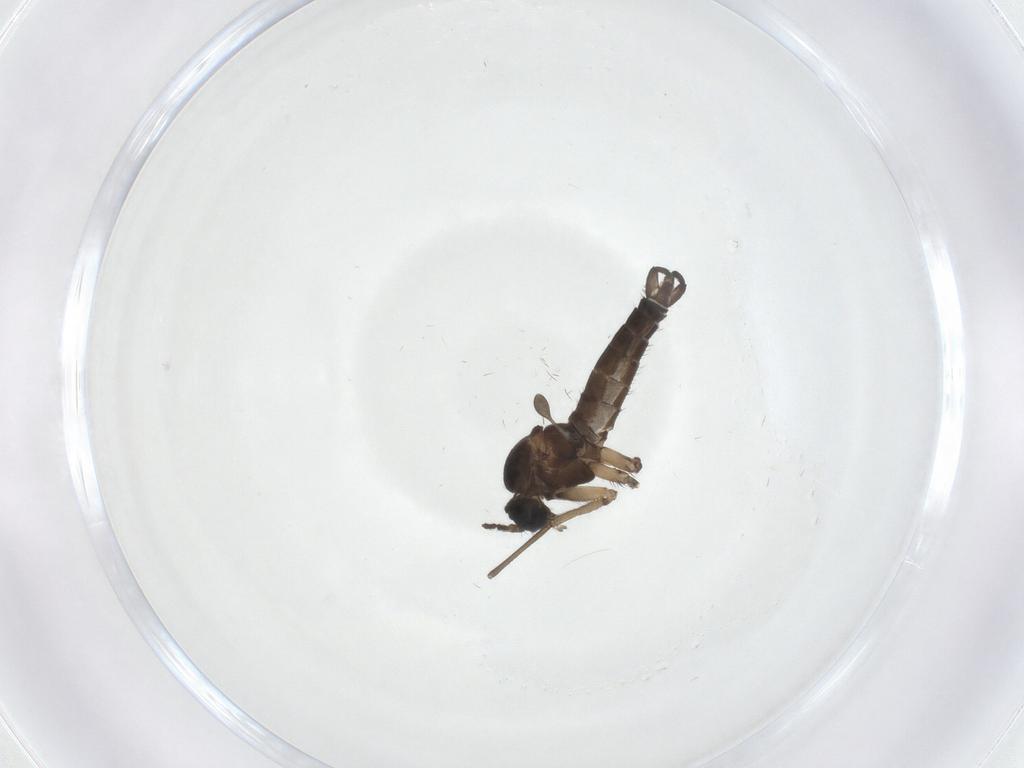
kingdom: Animalia
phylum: Arthropoda
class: Insecta
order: Diptera
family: Sciaridae
